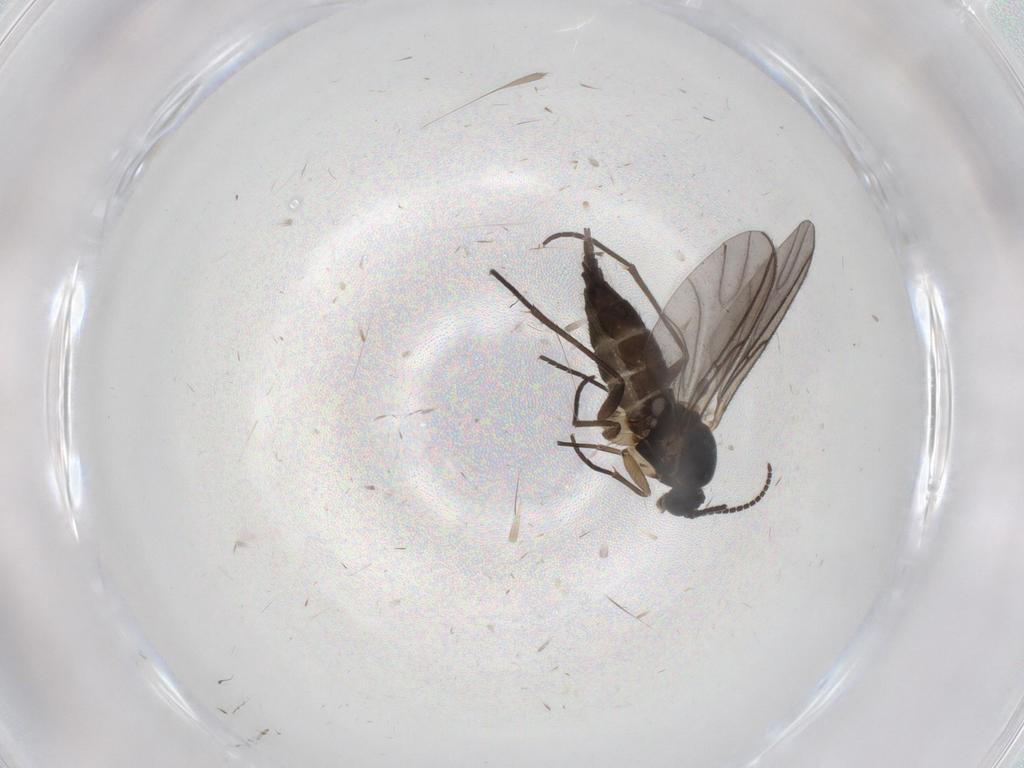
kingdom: Animalia
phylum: Arthropoda
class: Insecta
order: Diptera
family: Sciaridae
